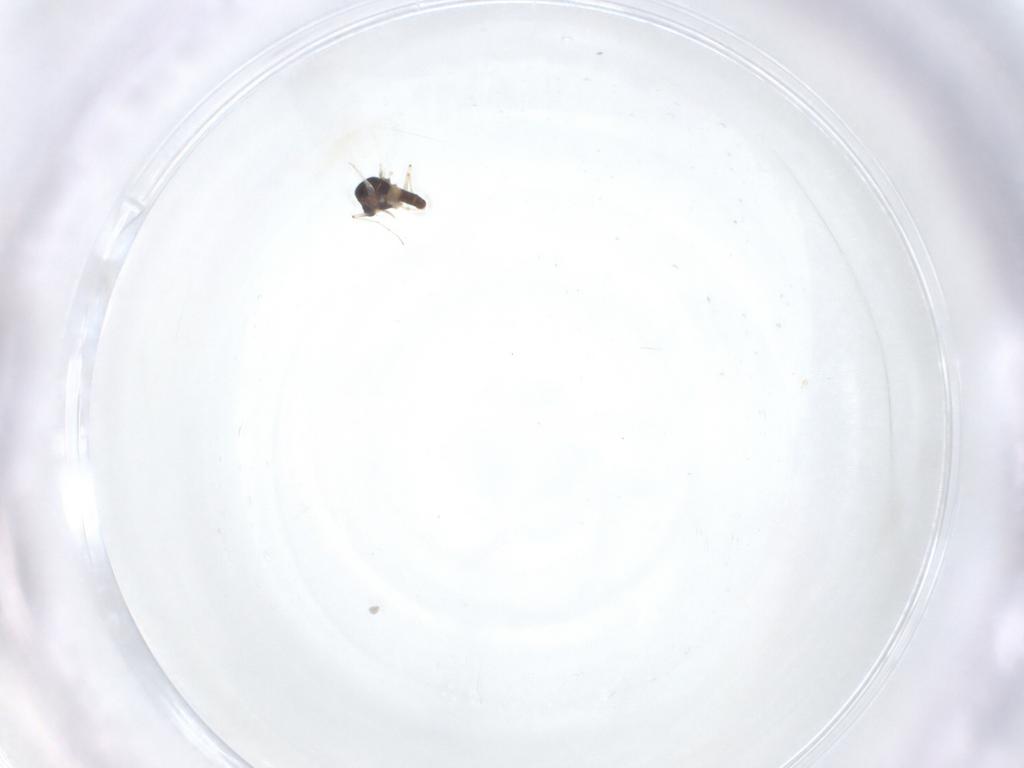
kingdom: Animalia
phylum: Arthropoda
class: Insecta
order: Diptera
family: Chironomidae
